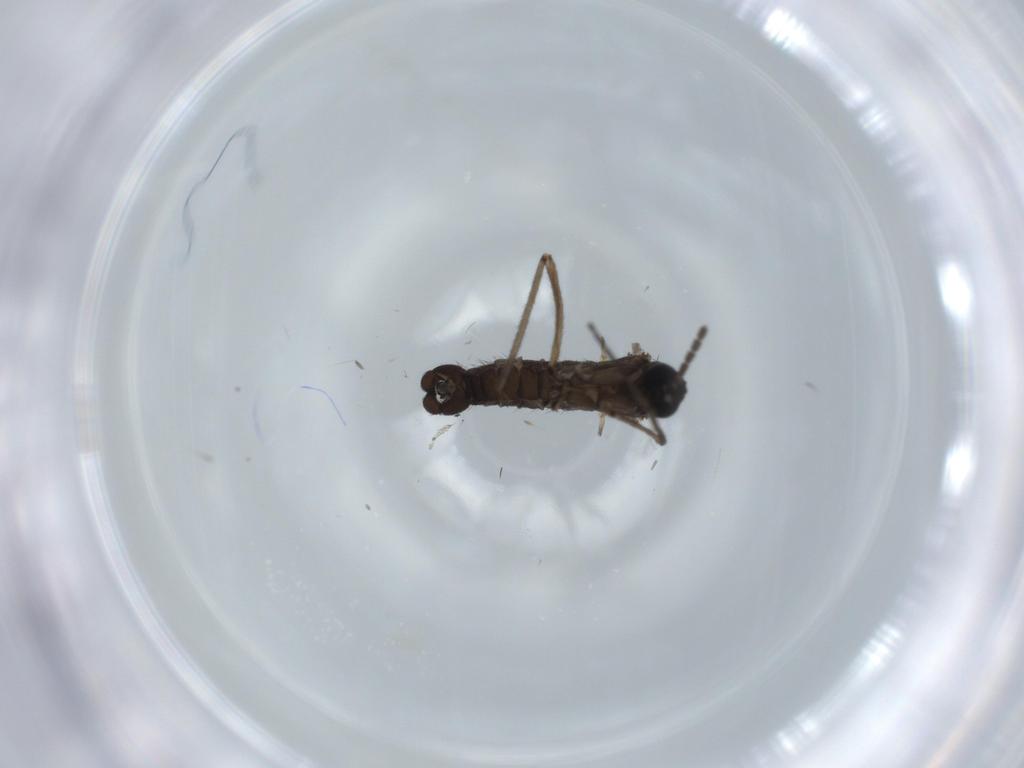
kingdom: Animalia
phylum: Arthropoda
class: Insecta
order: Diptera
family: Sciaridae
